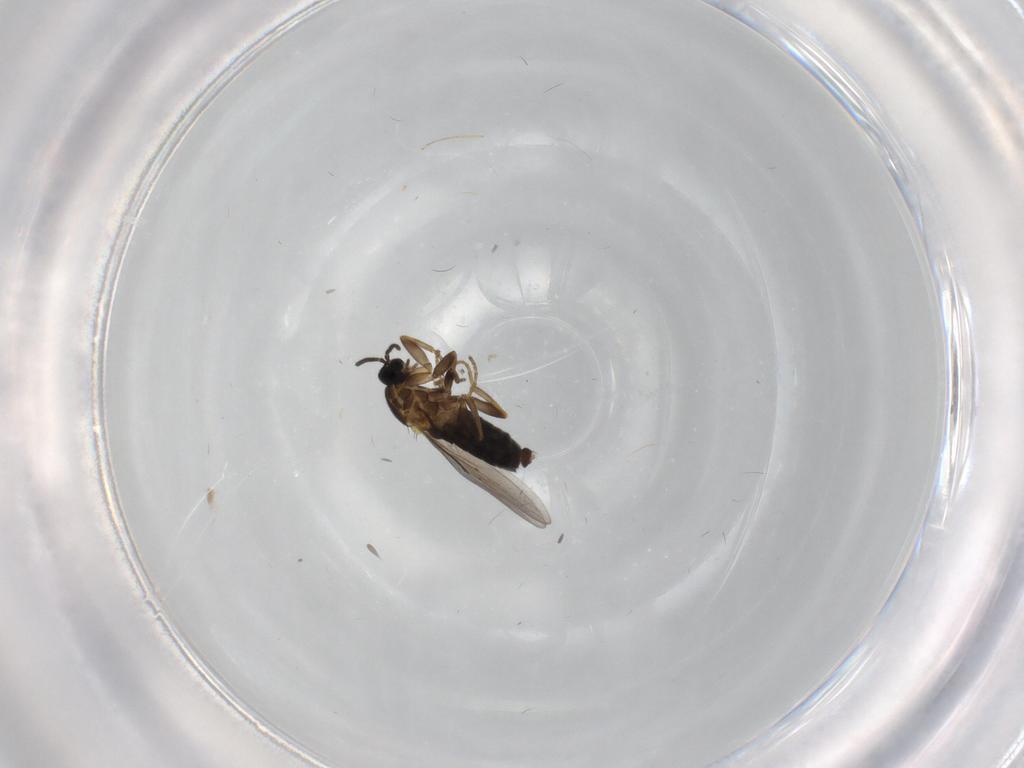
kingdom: Animalia
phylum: Arthropoda
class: Insecta
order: Diptera
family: Scatopsidae
